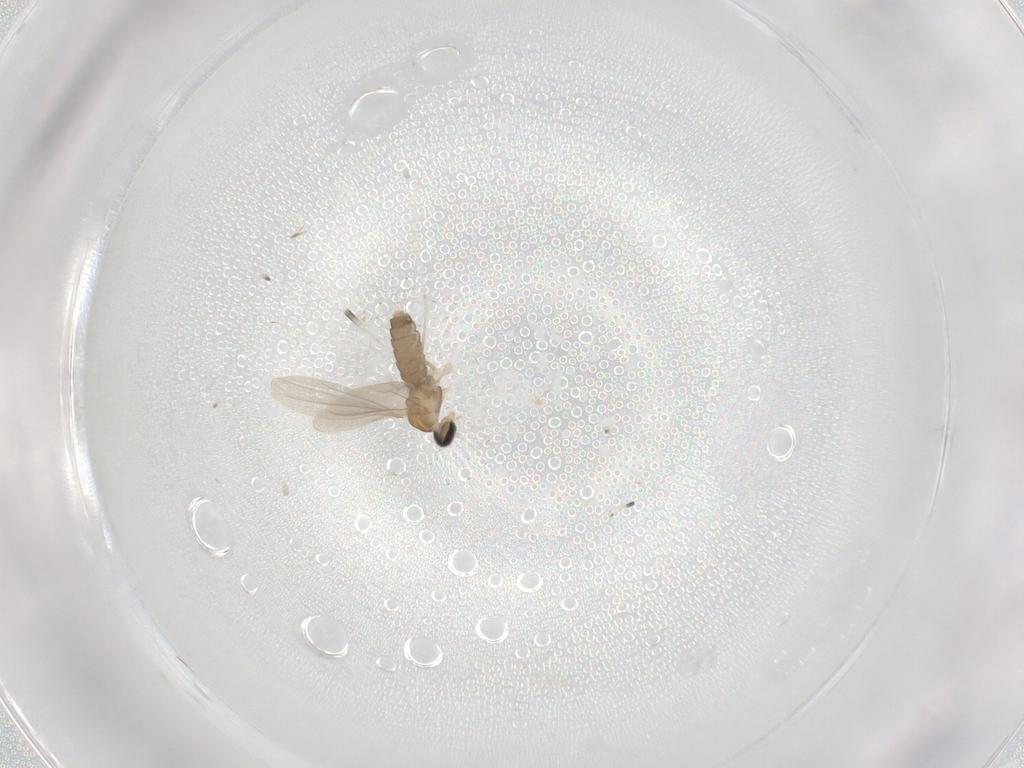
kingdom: Animalia
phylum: Arthropoda
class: Insecta
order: Diptera
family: Cecidomyiidae
